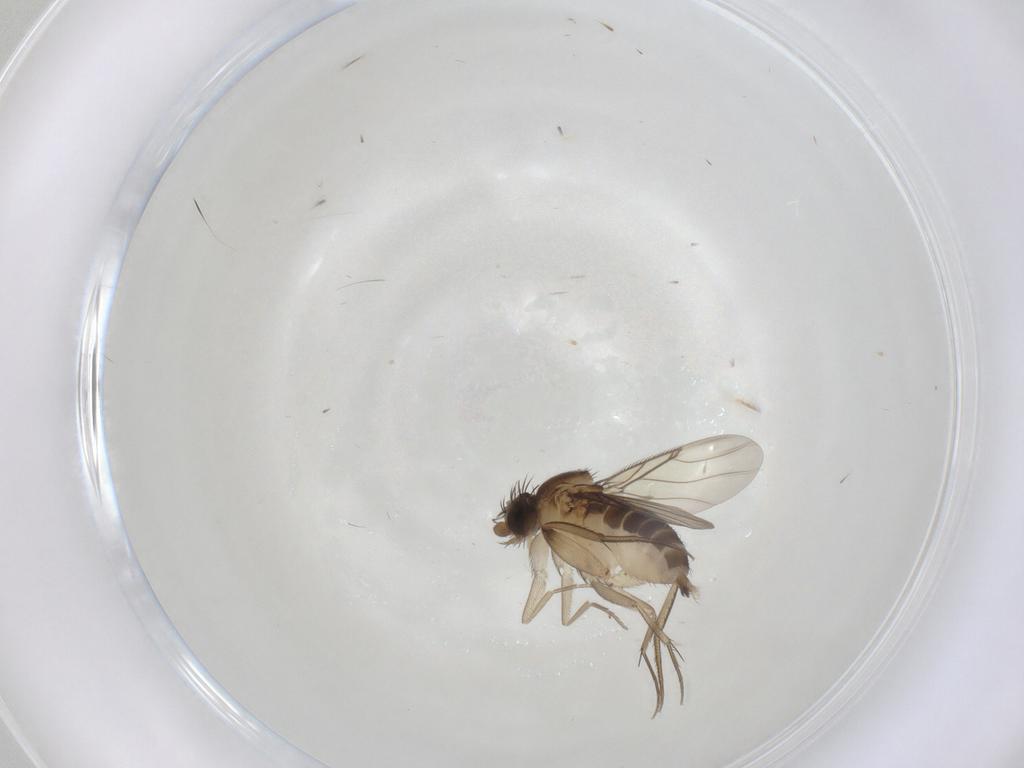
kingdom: Animalia
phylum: Arthropoda
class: Insecta
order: Diptera
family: Phoridae
